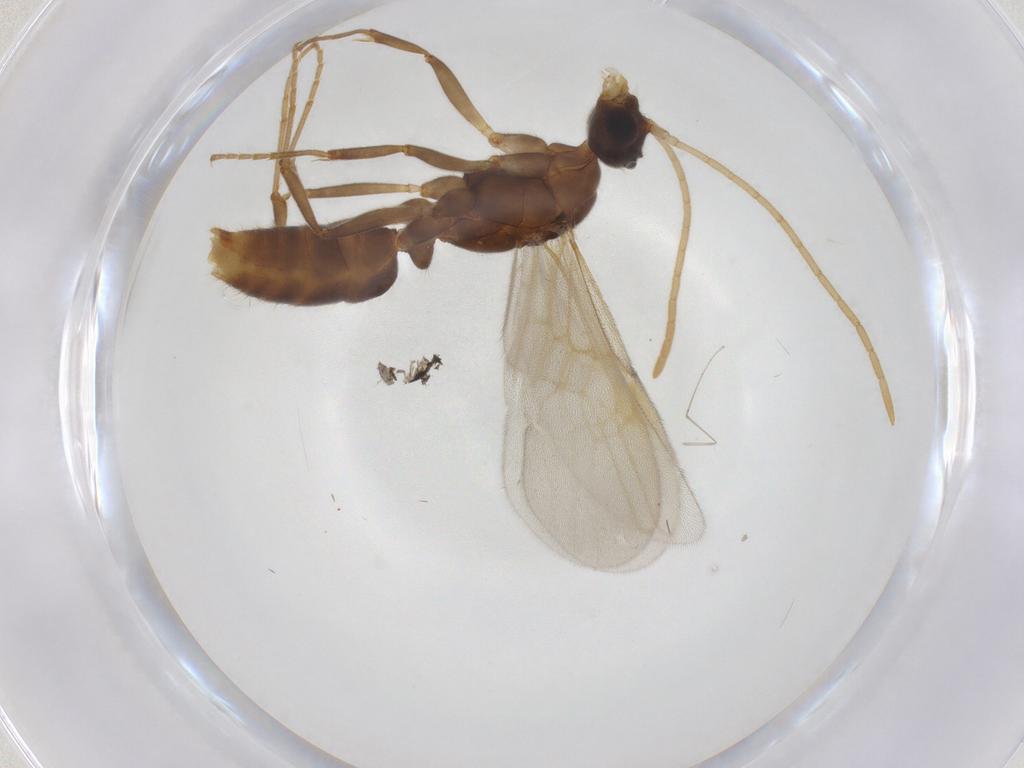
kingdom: Animalia
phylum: Arthropoda
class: Insecta
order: Hymenoptera
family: Formicidae
